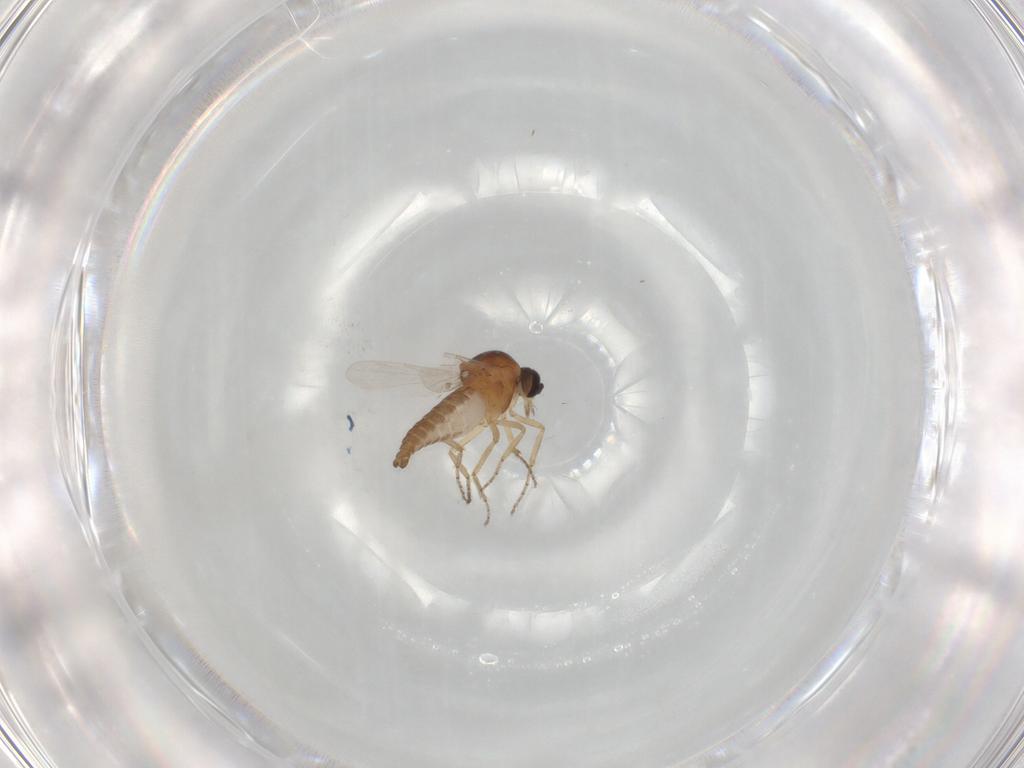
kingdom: Animalia
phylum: Arthropoda
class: Insecta
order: Diptera
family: Ceratopogonidae
